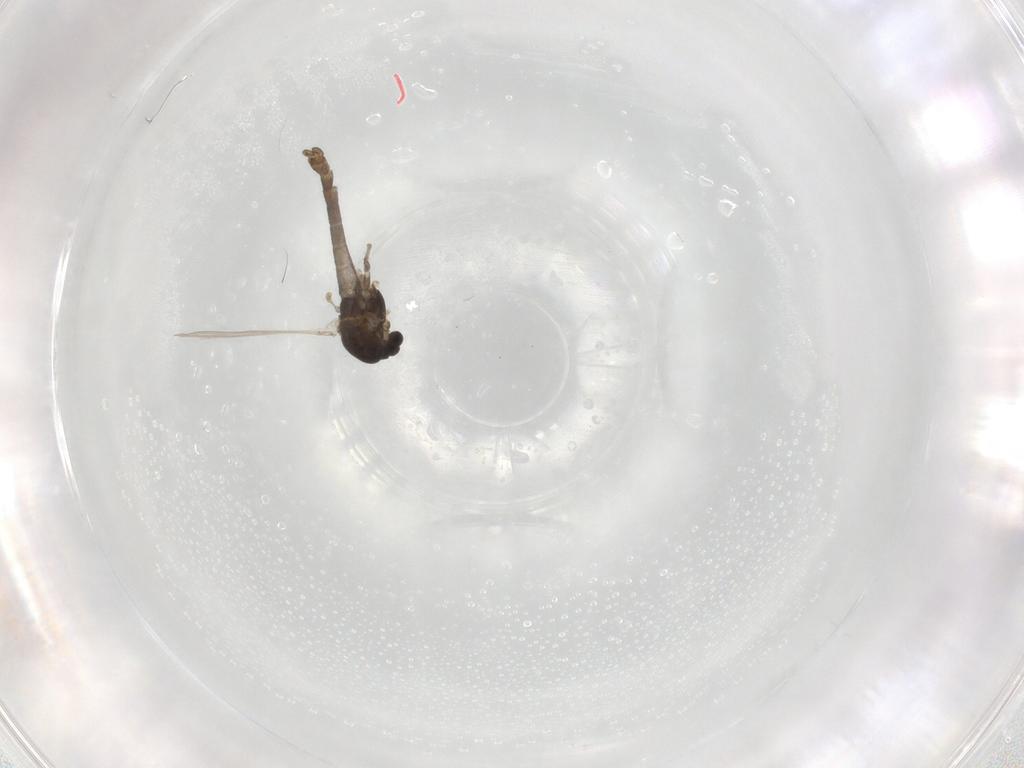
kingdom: Animalia
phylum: Arthropoda
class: Insecta
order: Diptera
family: Chironomidae
